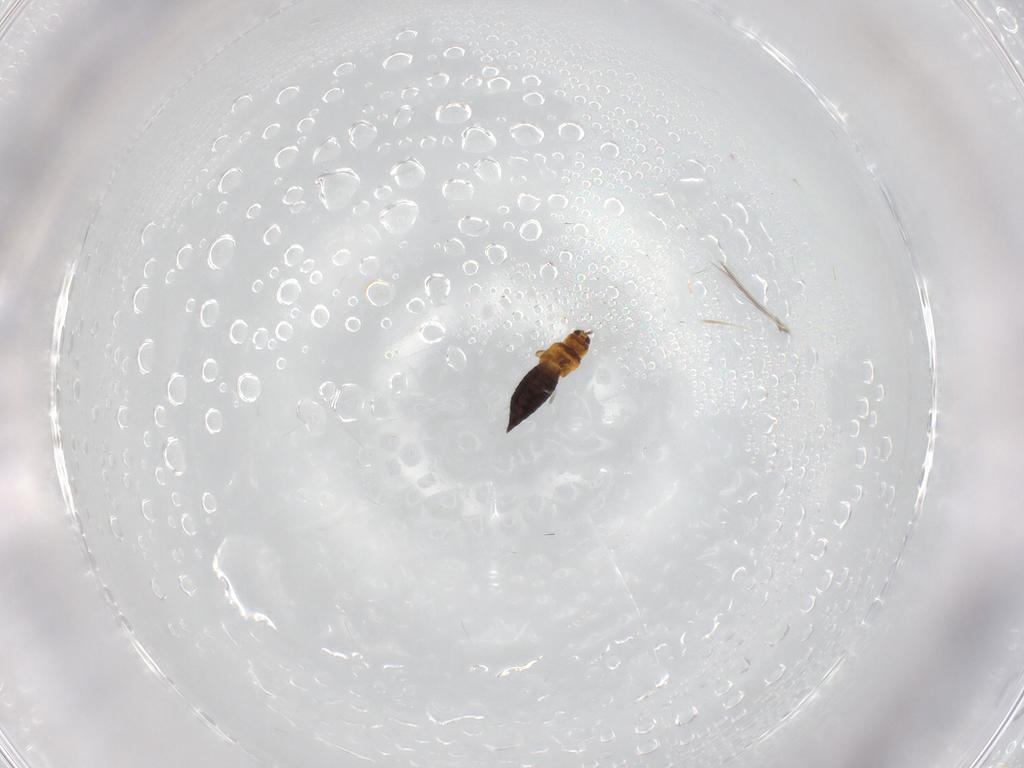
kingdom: Animalia
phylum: Arthropoda
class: Insecta
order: Thysanoptera
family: Thripidae
